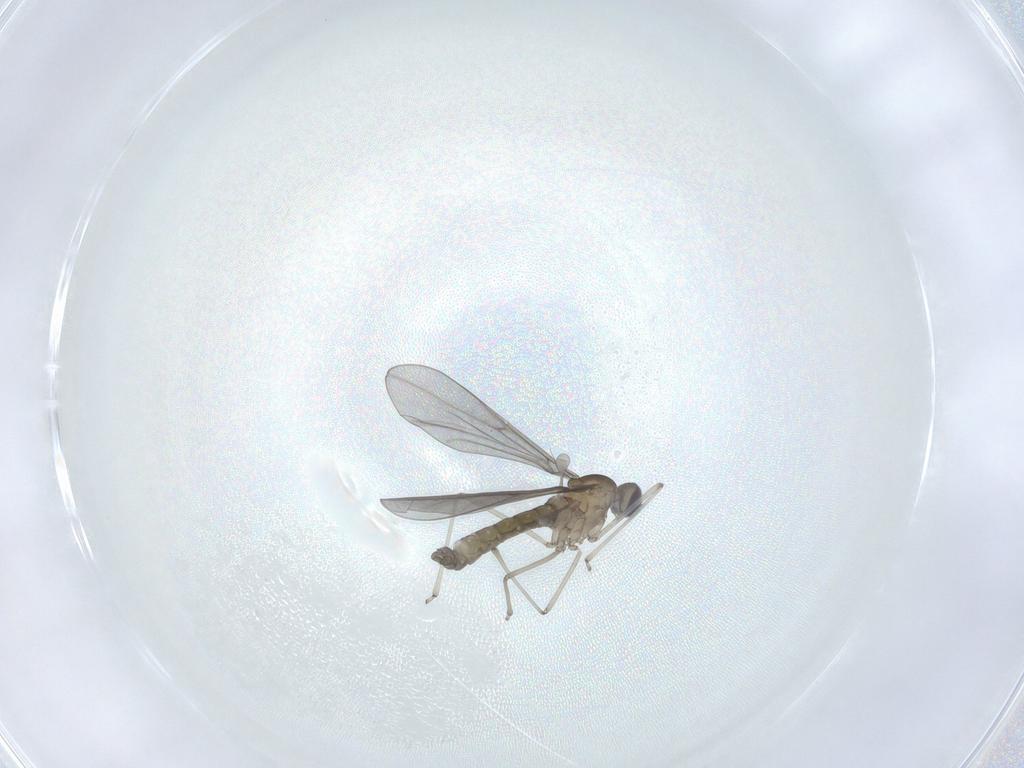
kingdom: Animalia
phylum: Arthropoda
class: Insecta
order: Diptera
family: Cecidomyiidae
